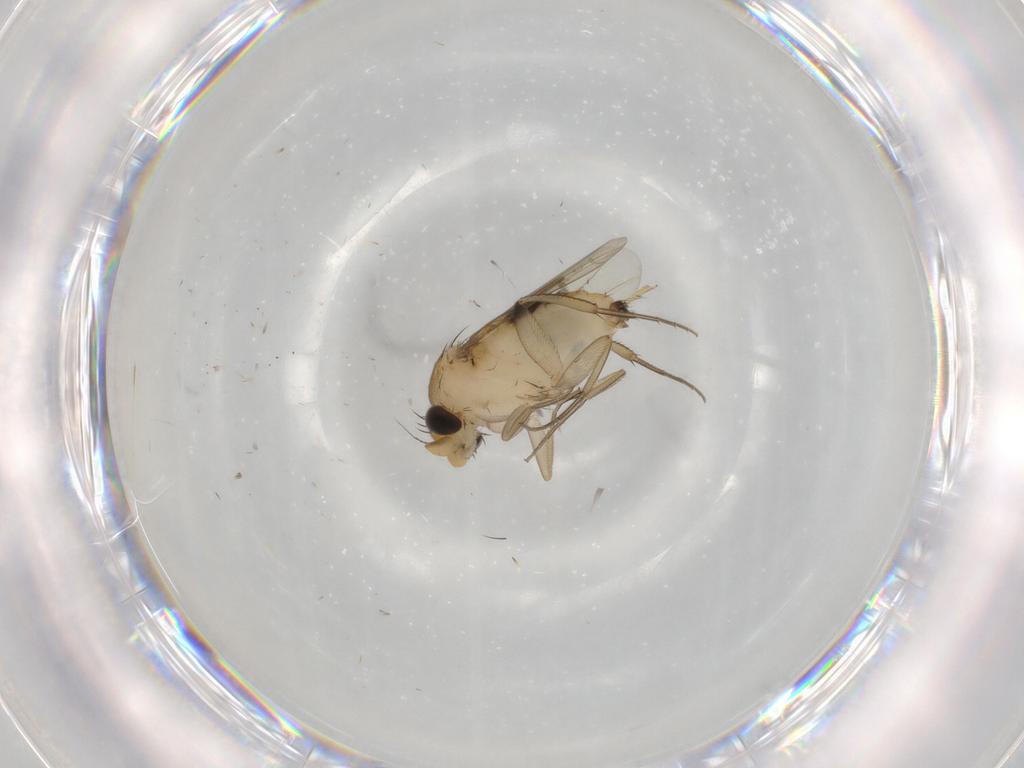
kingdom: Animalia
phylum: Arthropoda
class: Insecta
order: Diptera
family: Phoridae
